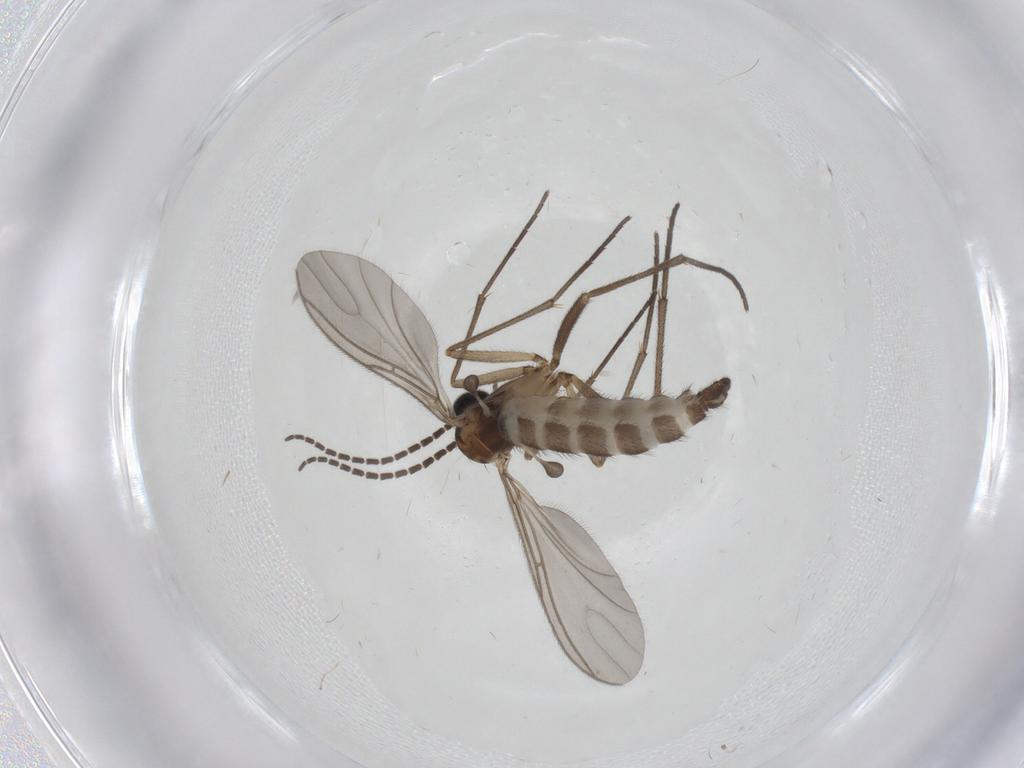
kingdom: Animalia
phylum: Arthropoda
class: Insecta
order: Diptera
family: Sciaridae
